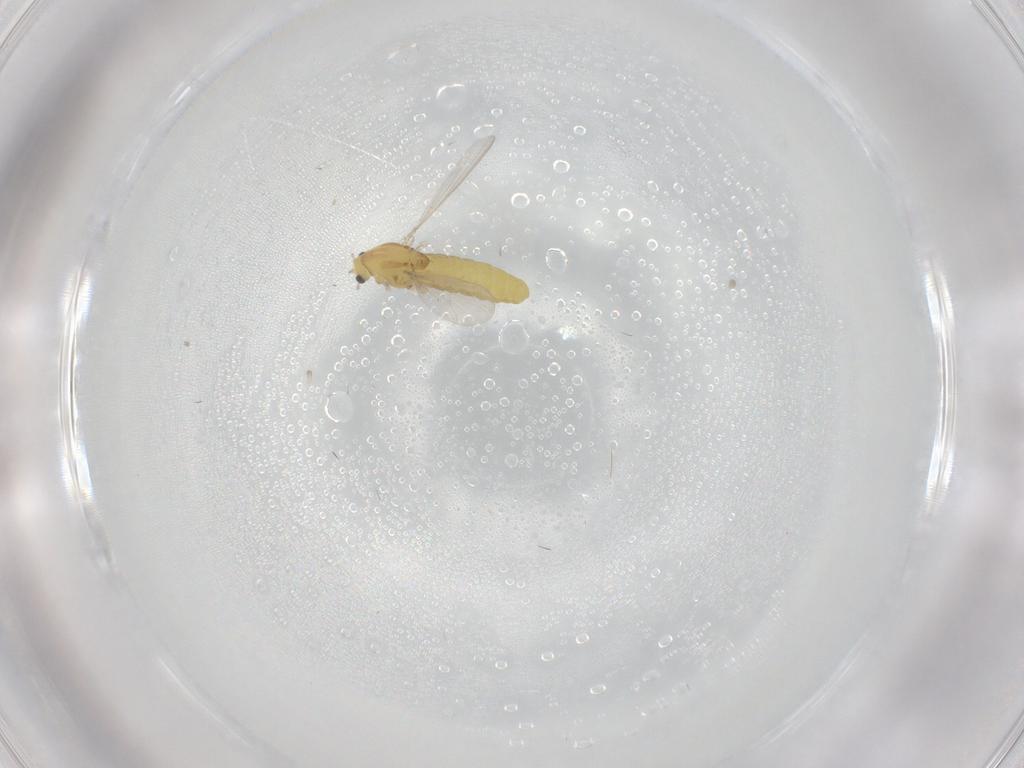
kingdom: Animalia
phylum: Arthropoda
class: Insecta
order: Diptera
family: Chironomidae
